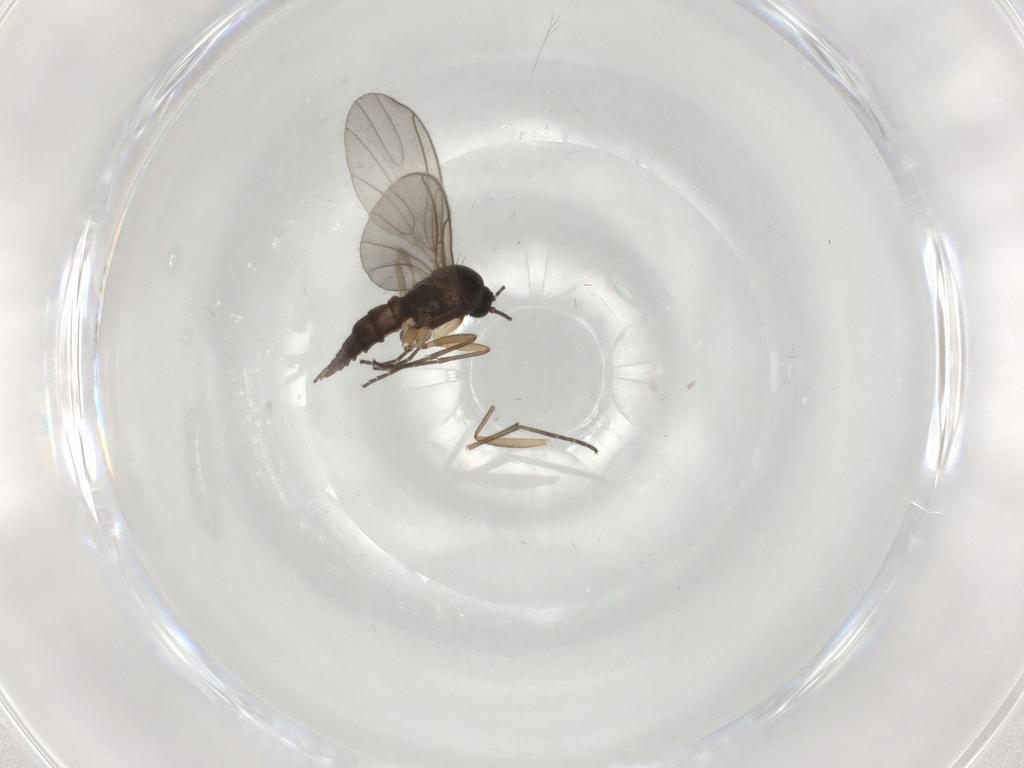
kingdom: Animalia
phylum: Arthropoda
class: Insecta
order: Diptera
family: Sciaridae
